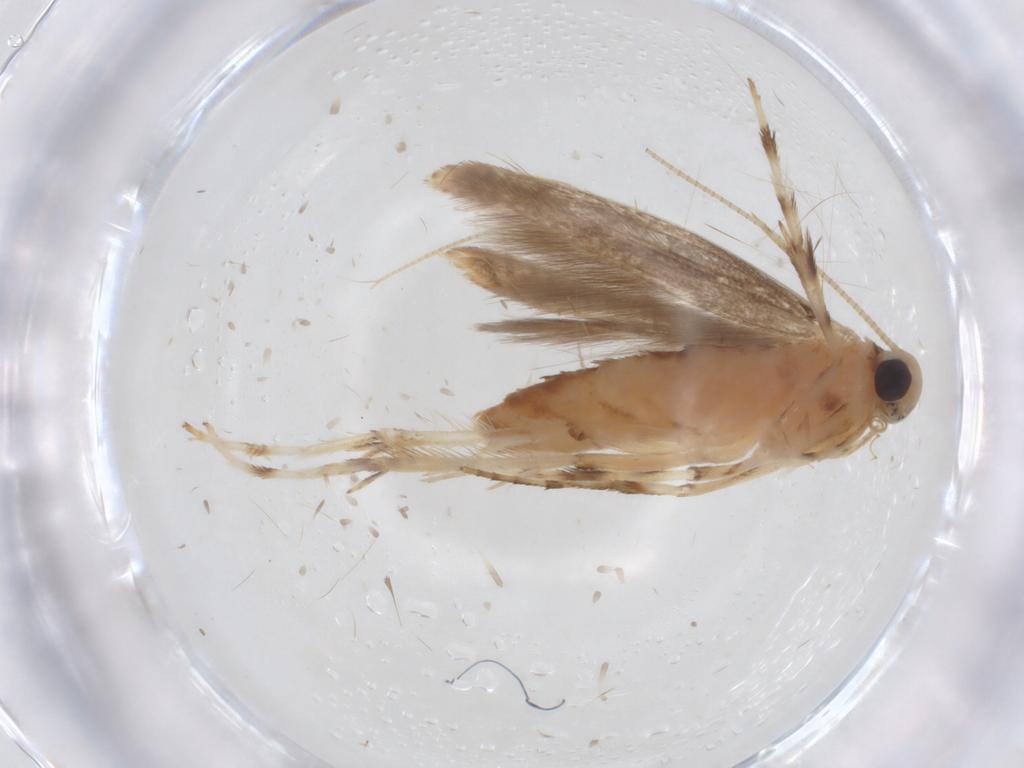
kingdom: Animalia
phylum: Arthropoda
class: Insecta
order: Lepidoptera
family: Gracillariidae
